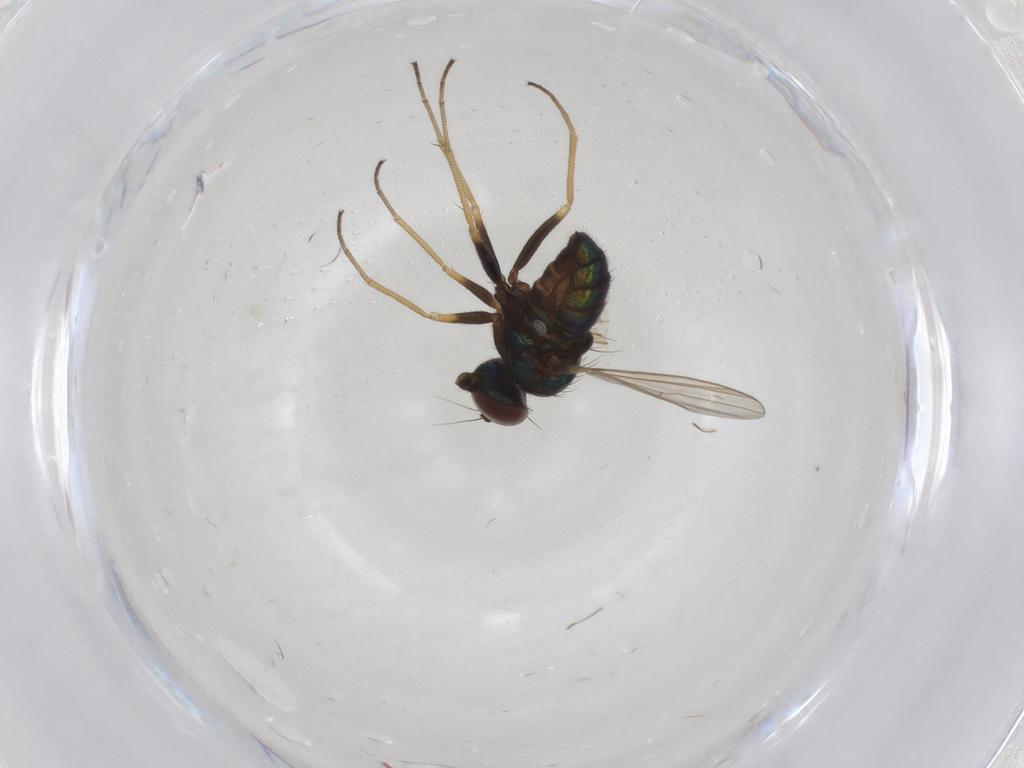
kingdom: Animalia
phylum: Arthropoda
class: Insecta
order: Diptera
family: Dolichopodidae
